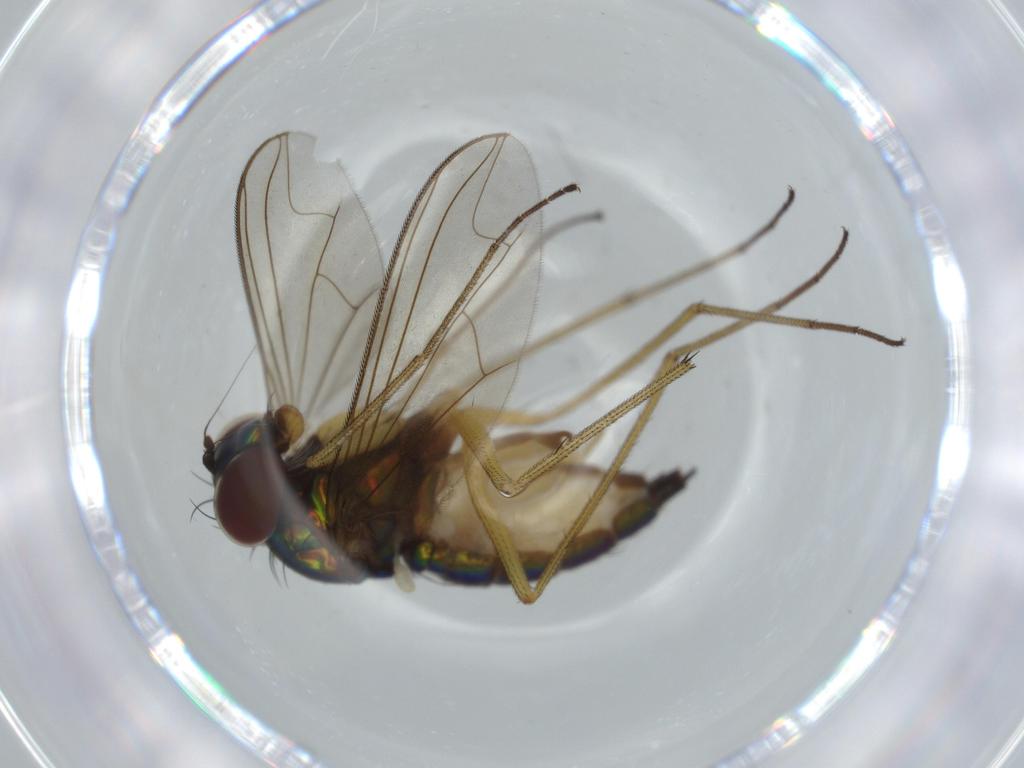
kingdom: Animalia
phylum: Arthropoda
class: Insecta
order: Diptera
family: Dolichopodidae
